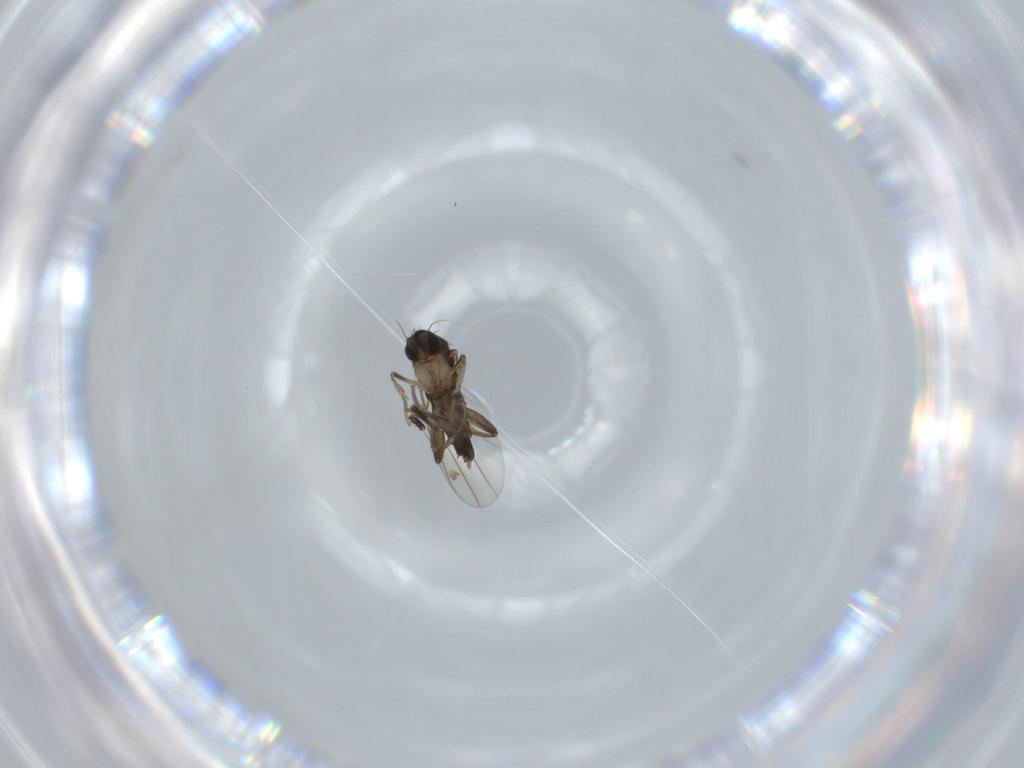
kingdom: Animalia
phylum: Arthropoda
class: Insecta
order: Diptera
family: Phoridae
